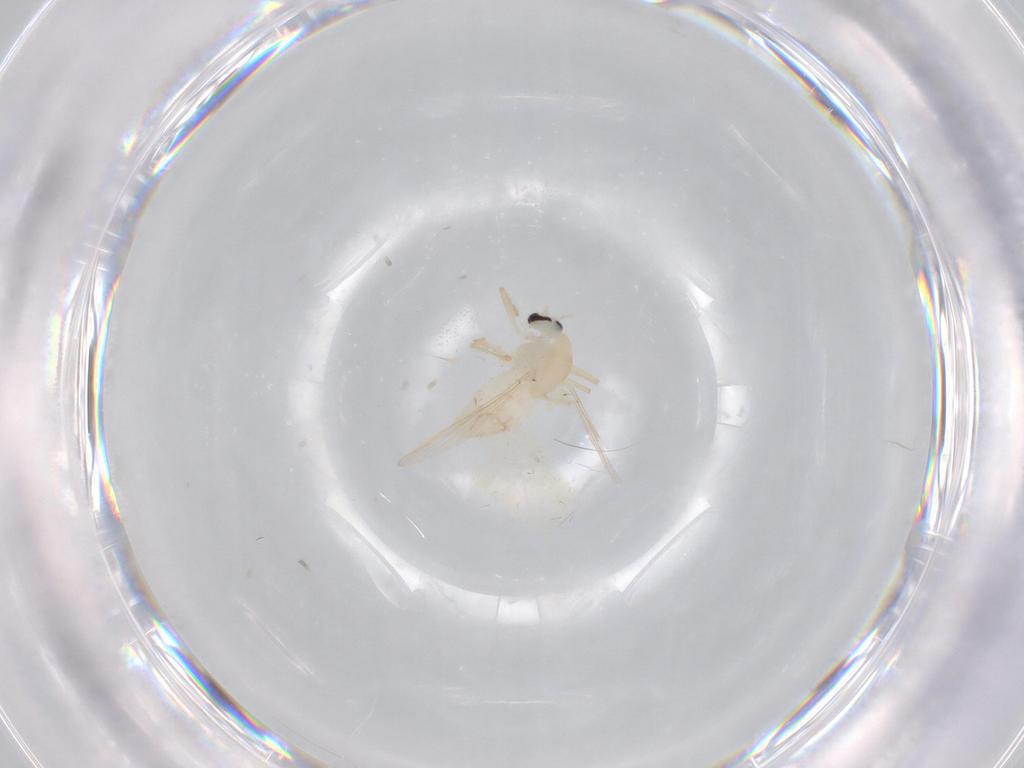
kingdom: Animalia
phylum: Arthropoda
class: Insecta
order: Diptera
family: Chironomidae
